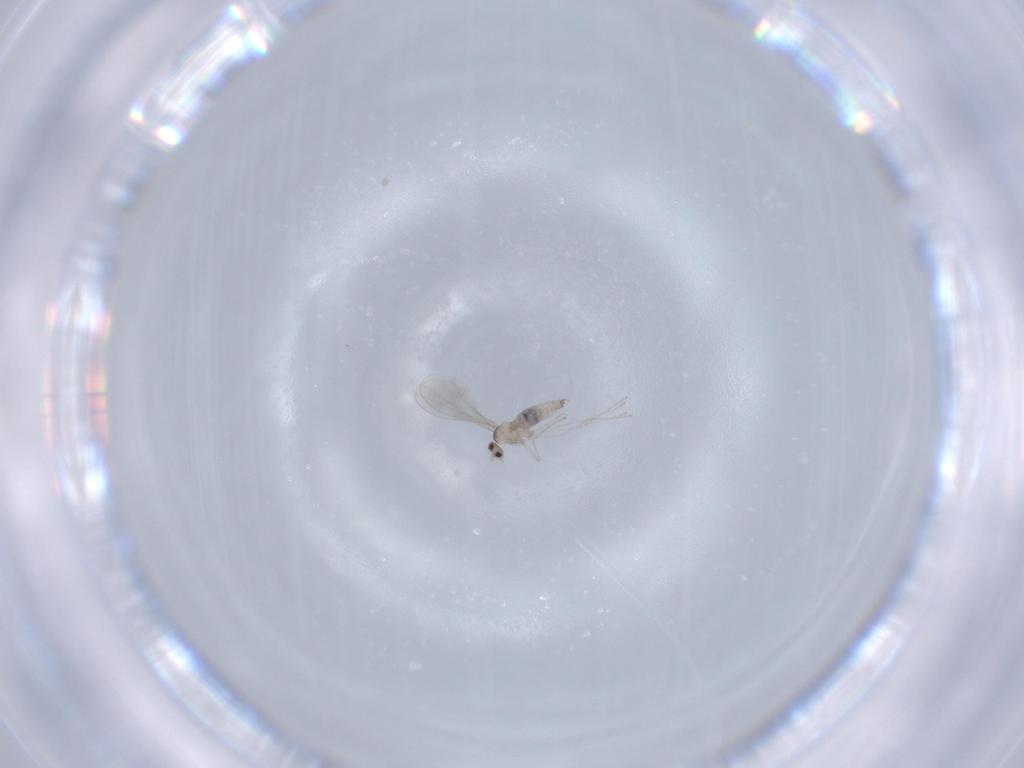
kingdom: Animalia
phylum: Arthropoda
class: Insecta
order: Diptera
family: Cecidomyiidae
